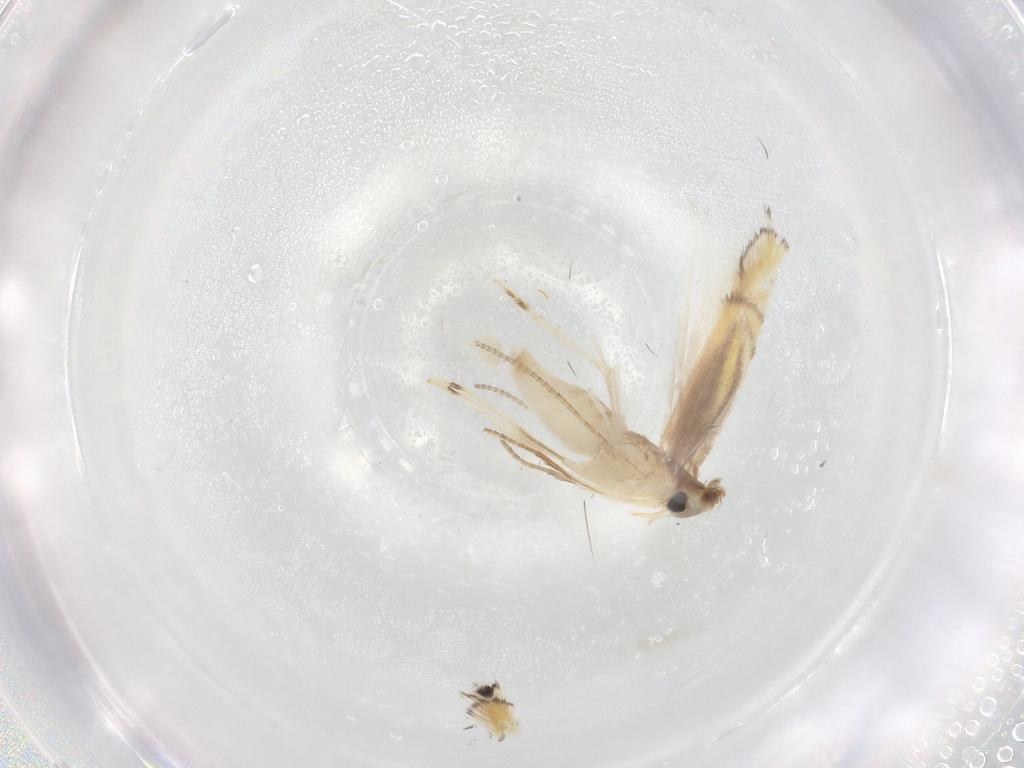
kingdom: Animalia
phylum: Arthropoda
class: Insecta
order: Lepidoptera
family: Gracillariidae
